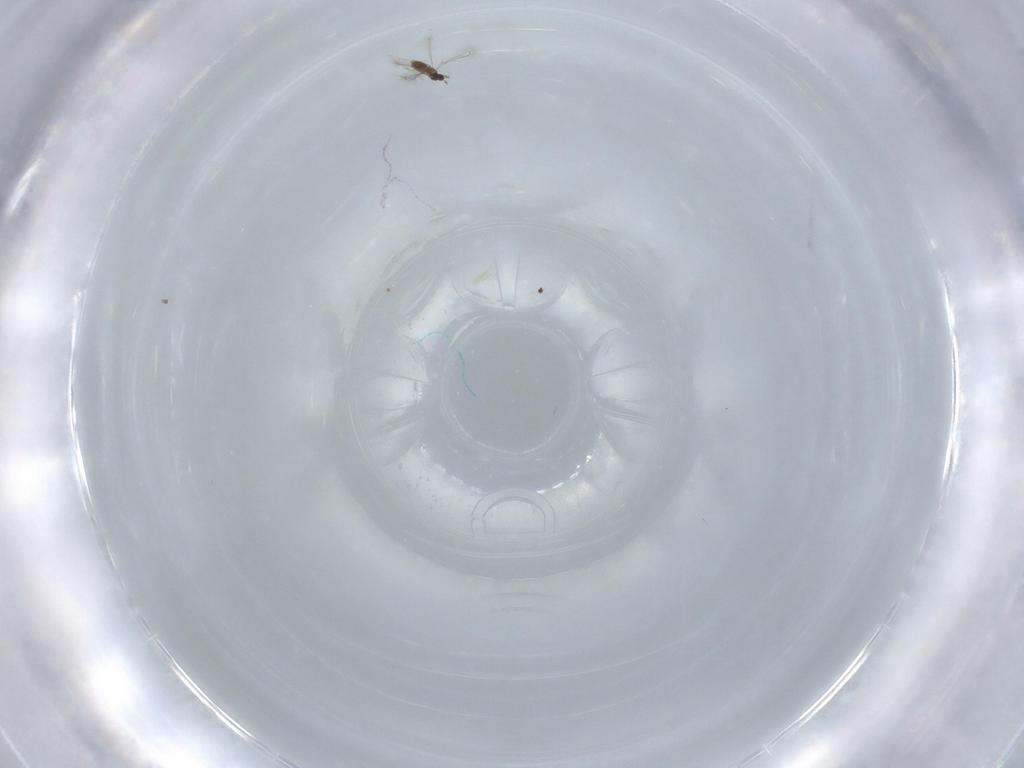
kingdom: Animalia
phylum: Arthropoda
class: Insecta
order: Hymenoptera
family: Mymaridae
